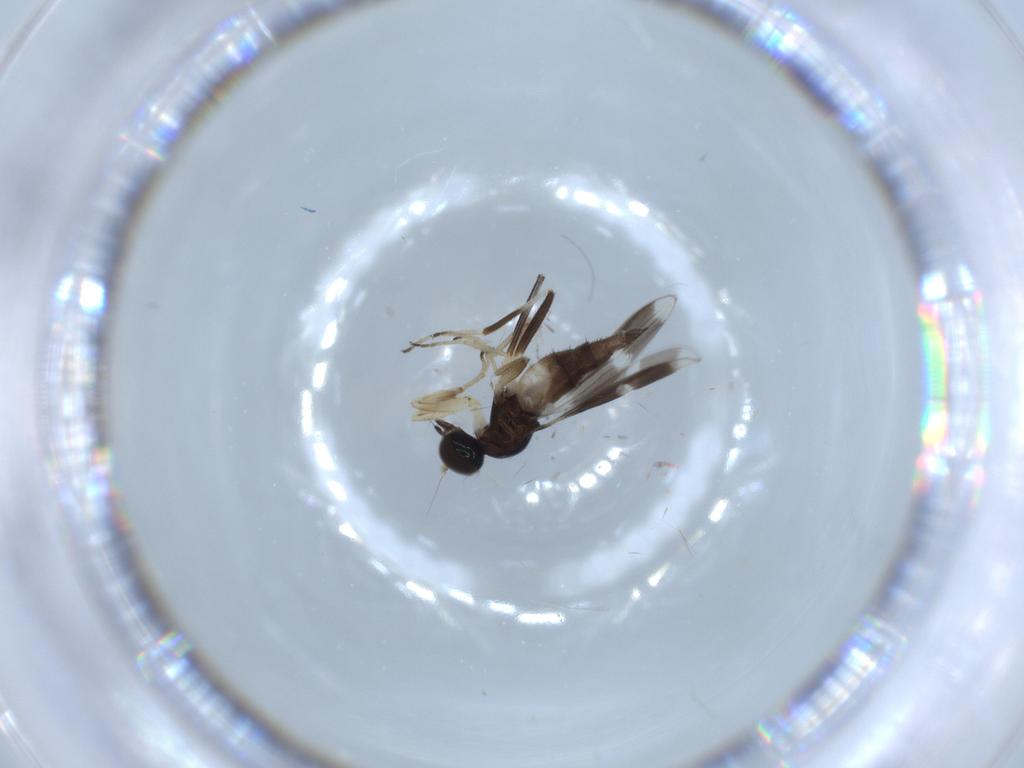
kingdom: Animalia
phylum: Arthropoda
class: Insecta
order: Diptera
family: Hybotidae
